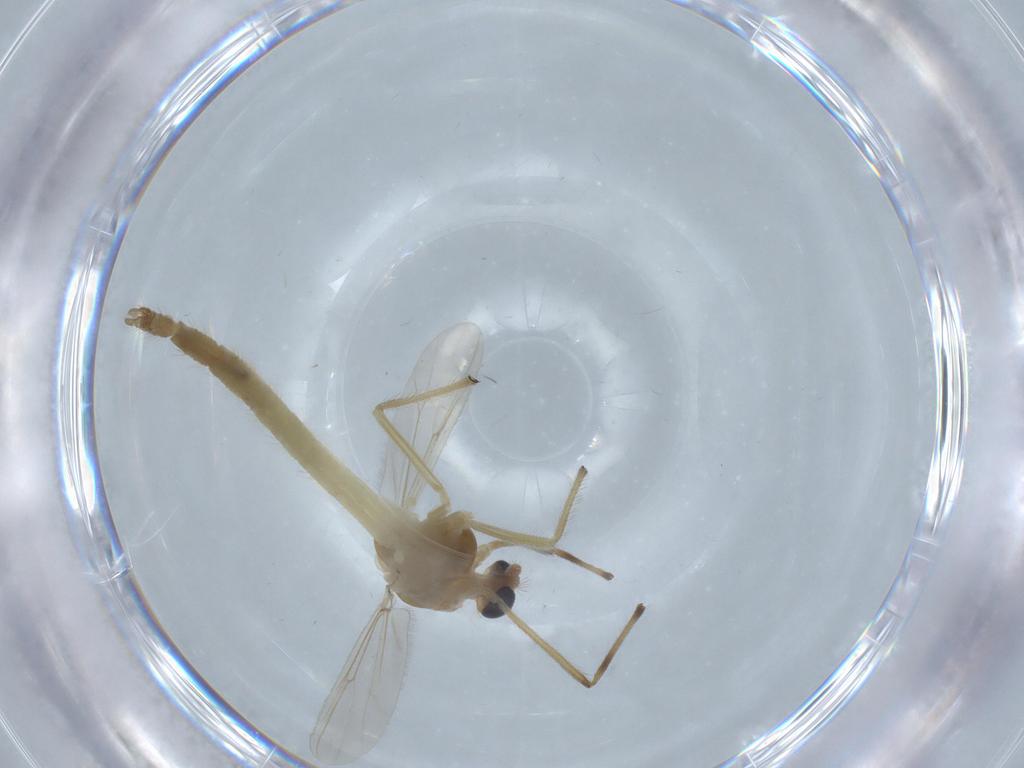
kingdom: Animalia
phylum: Arthropoda
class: Insecta
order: Diptera
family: Chironomidae
